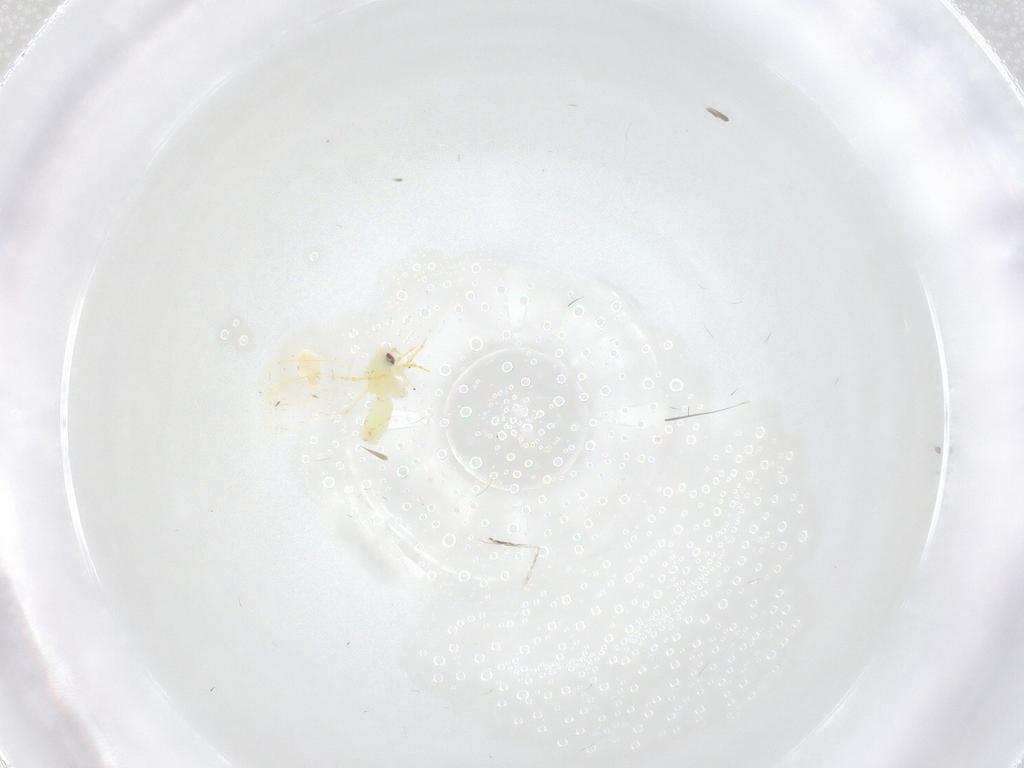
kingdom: Animalia
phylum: Arthropoda
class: Insecta
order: Hemiptera
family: Aleyrodidae
